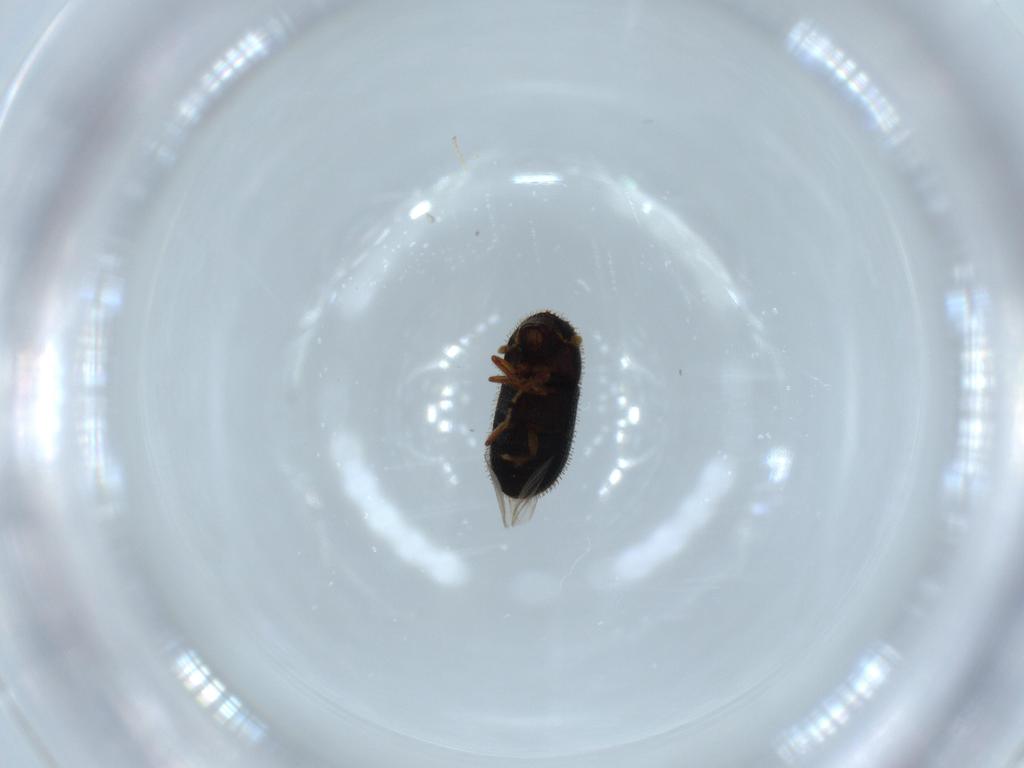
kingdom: Animalia
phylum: Arthropoda
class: Insecta
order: Coleoptera
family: Curculionidae
